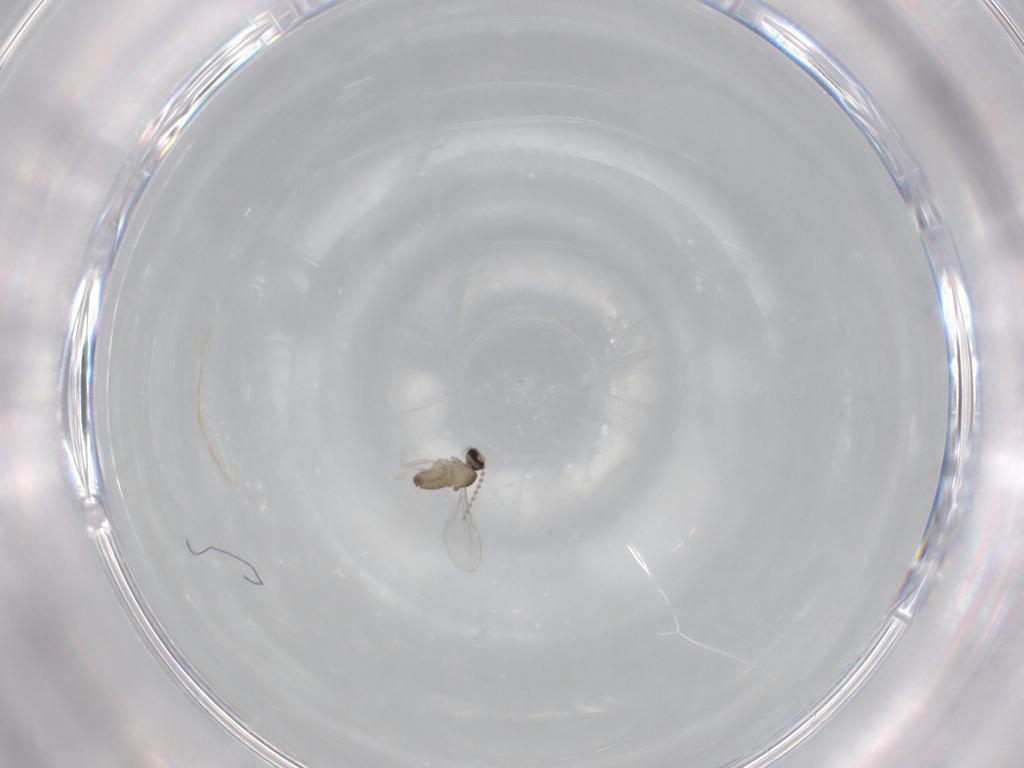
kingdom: Animalia
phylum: Arthropoda
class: Insecta
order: Diptera
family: Cecidomyiidae
